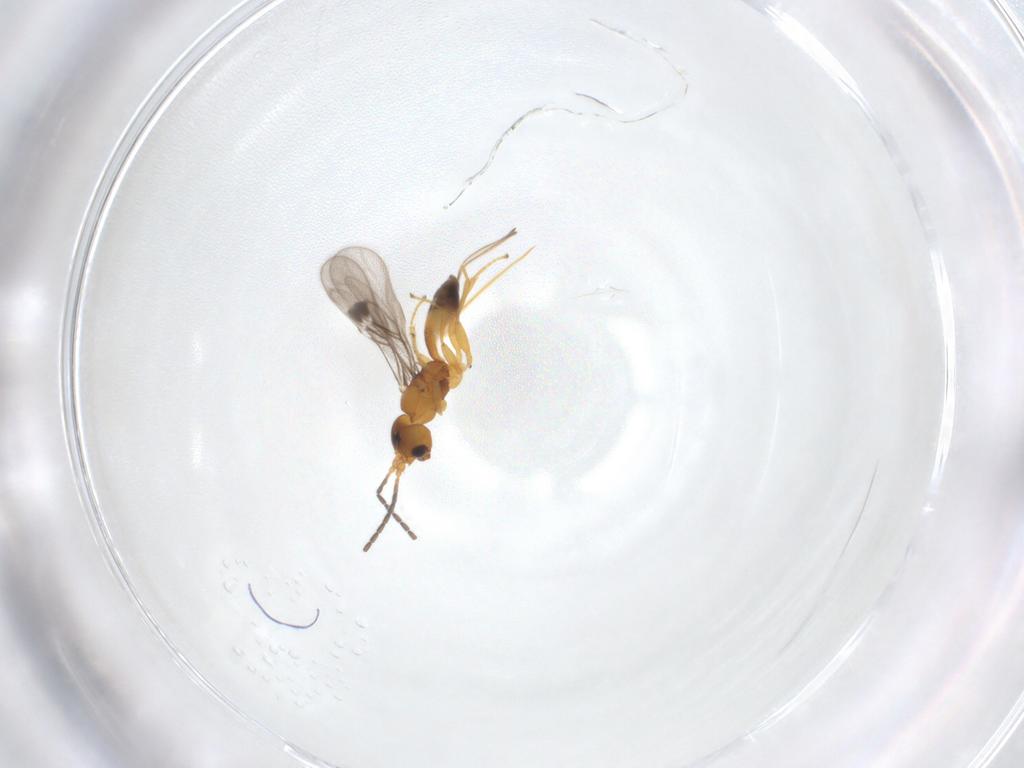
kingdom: Animalia
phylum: Arthropoda
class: Insecta
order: Hymenoptera
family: Braconidae
